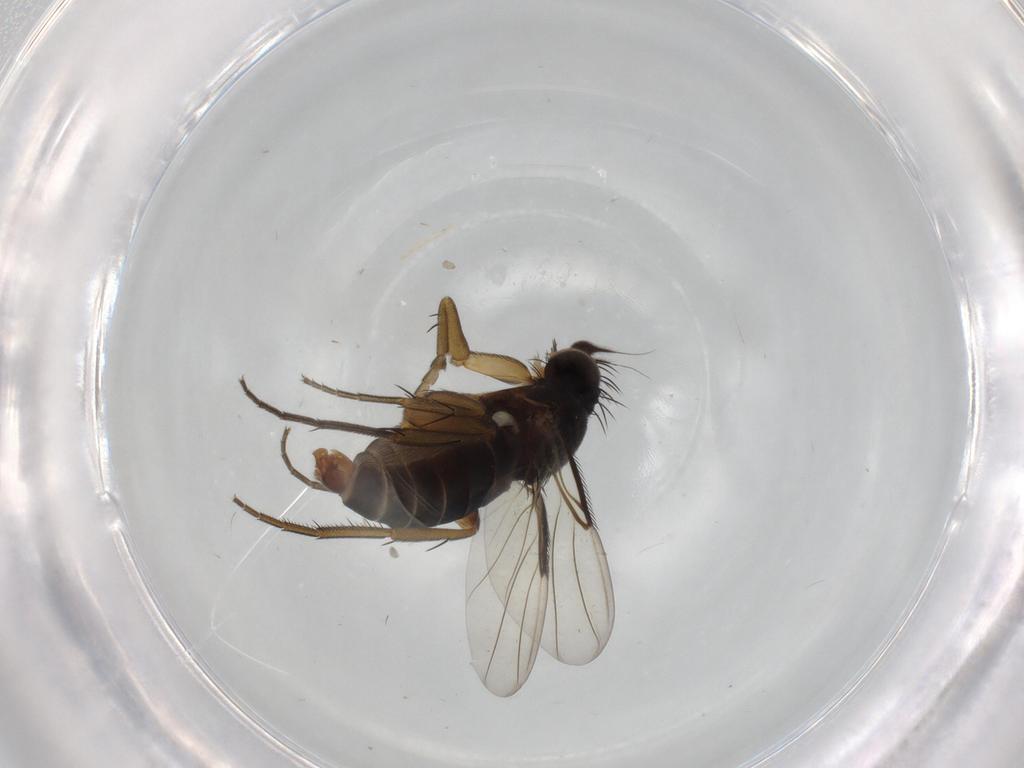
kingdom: Animalia
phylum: Arthropoda
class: Insecta
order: Diptera
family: Phoridae
